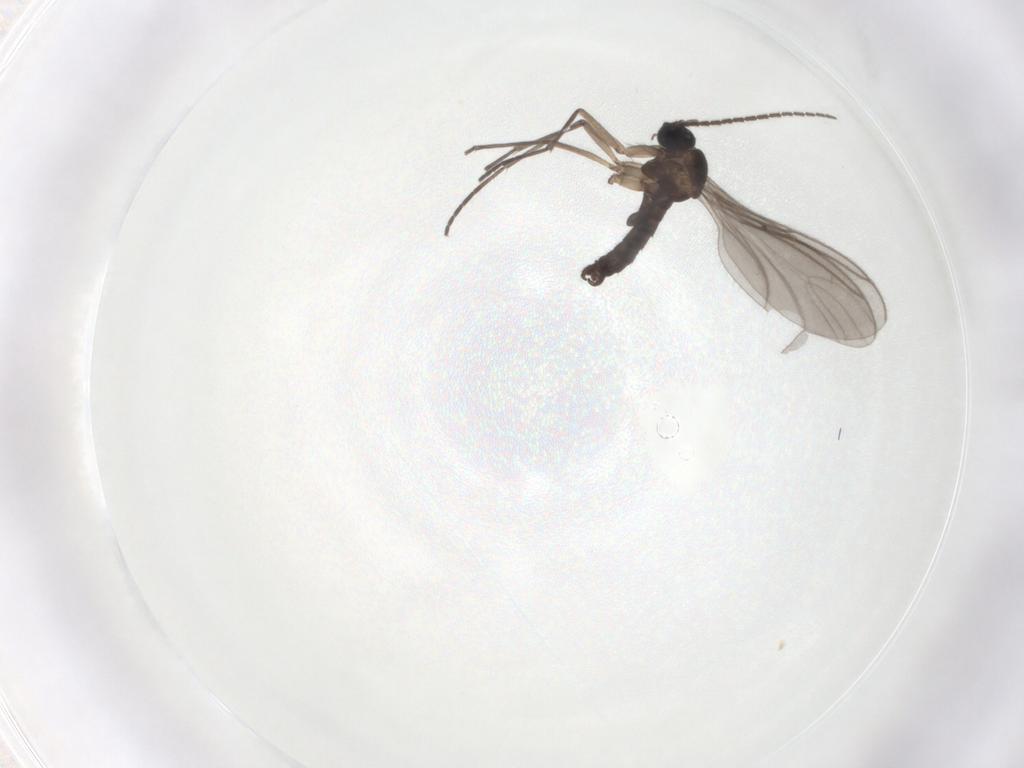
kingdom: Animalia
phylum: Arthropoda
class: Insecta
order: Diptera
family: Sciaridae
